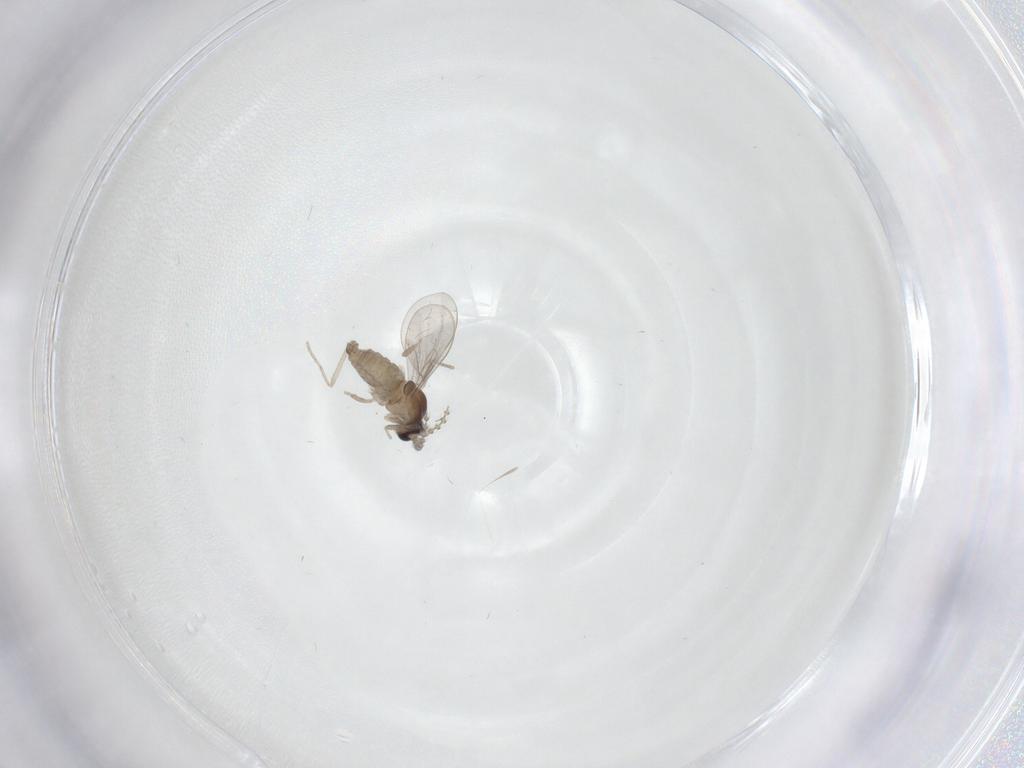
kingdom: Animalia
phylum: Arthropoda
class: Insecta
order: Diptera
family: Cecidomyiidae
